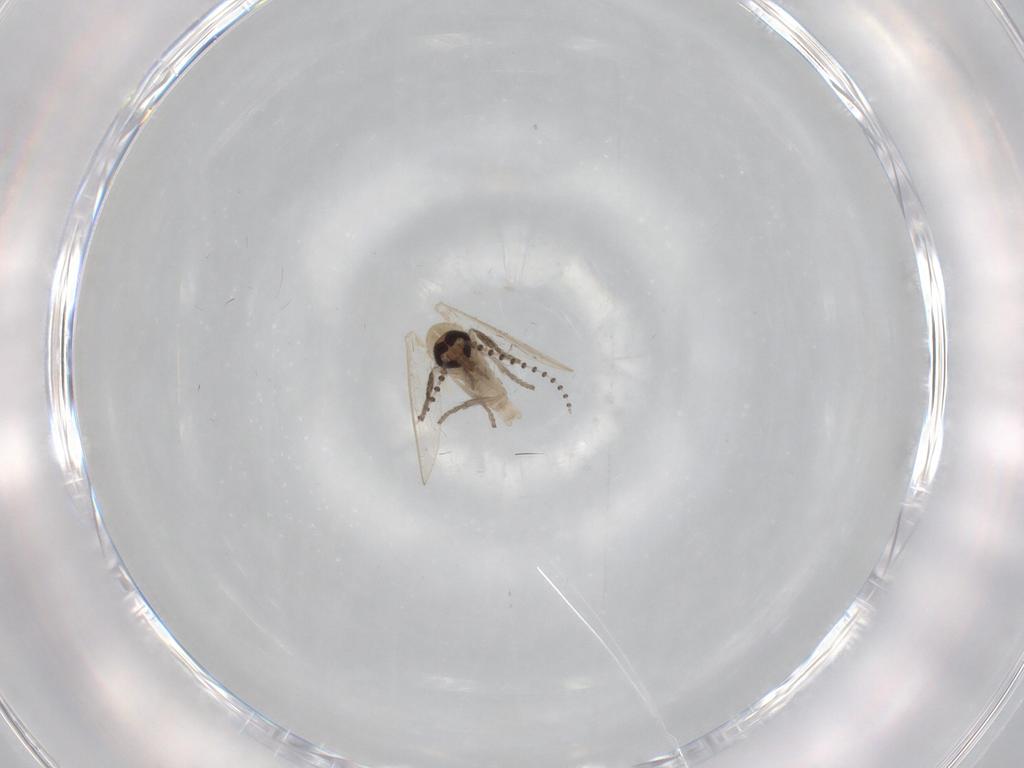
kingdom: Animalia
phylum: Arthropoda
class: Insecta
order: Diptera
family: Psychodidae
